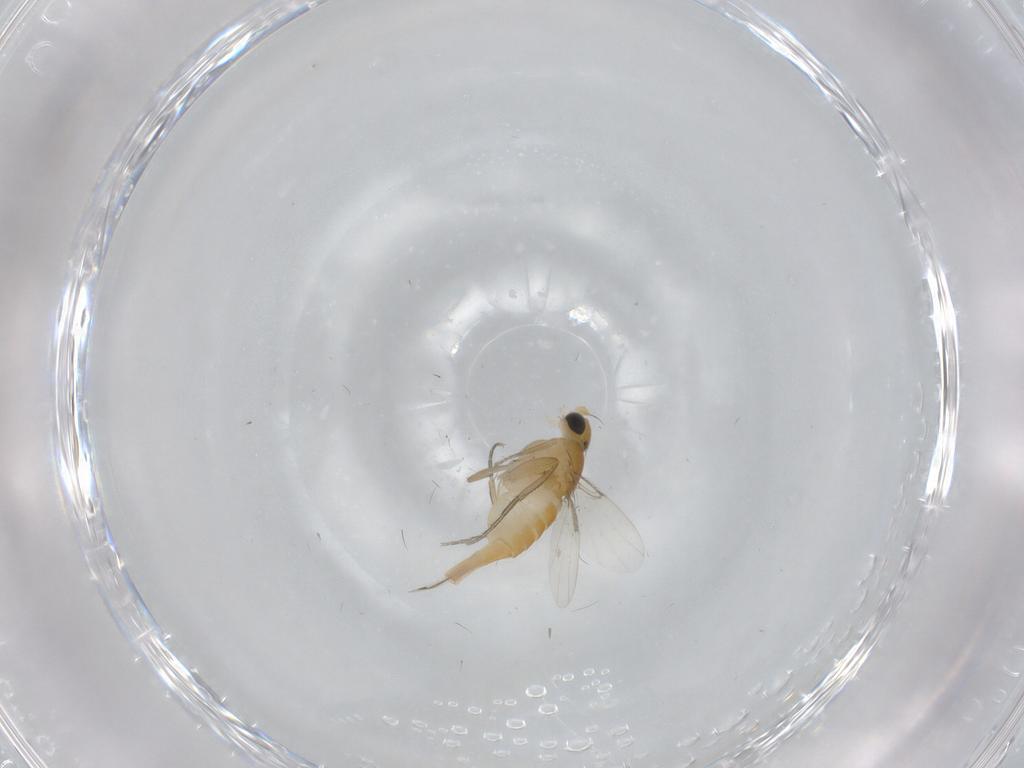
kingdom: Animalia
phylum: Arthropoda
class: Insecta
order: Diptera
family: Phoridae
